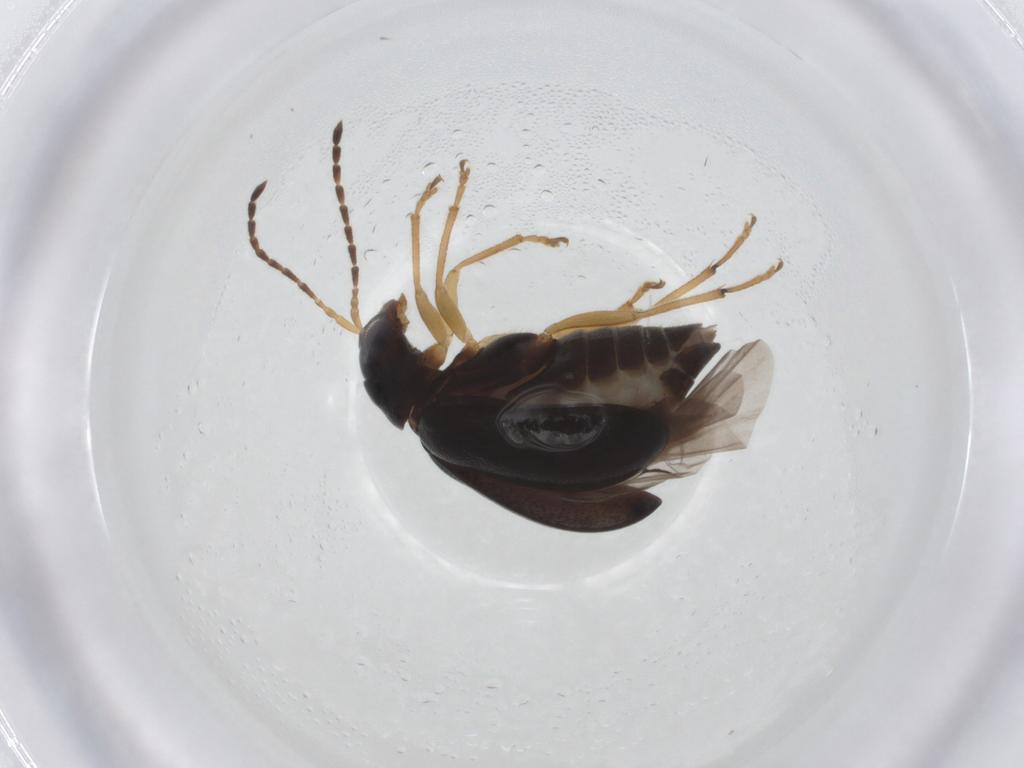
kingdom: Animalia
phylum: Arthropoda
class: Insecta
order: Coleoptera
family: Chrysomelidae
